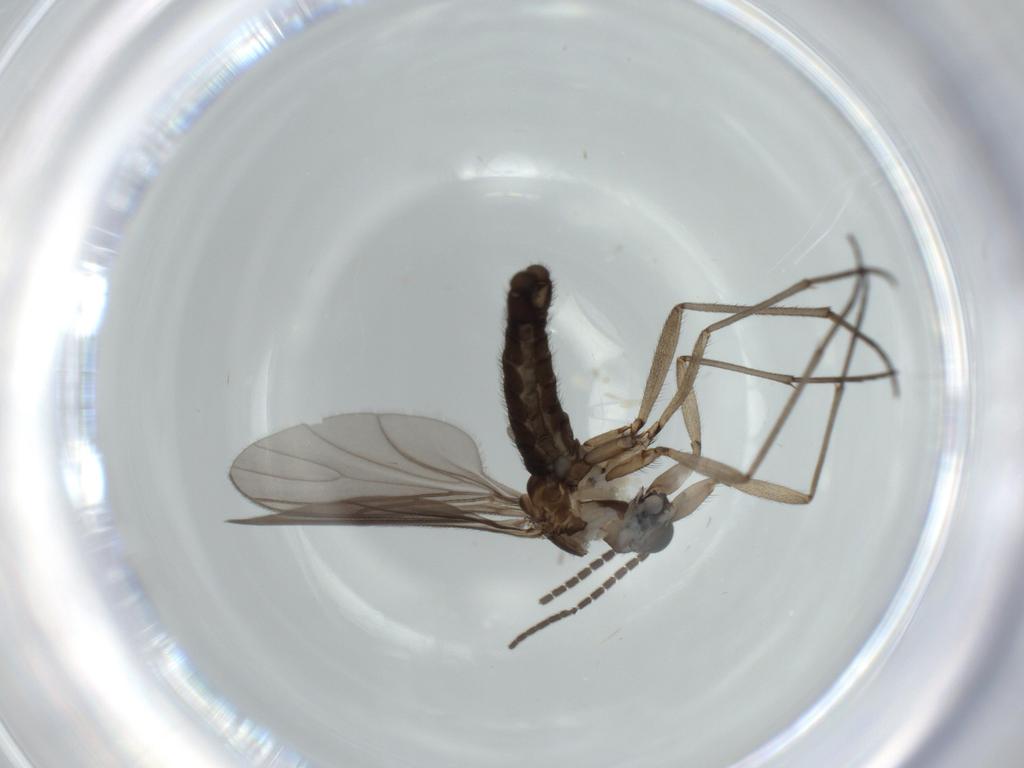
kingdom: Animalia
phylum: Arthropoda
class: Insecta
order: Diptera
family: Sciaridae
